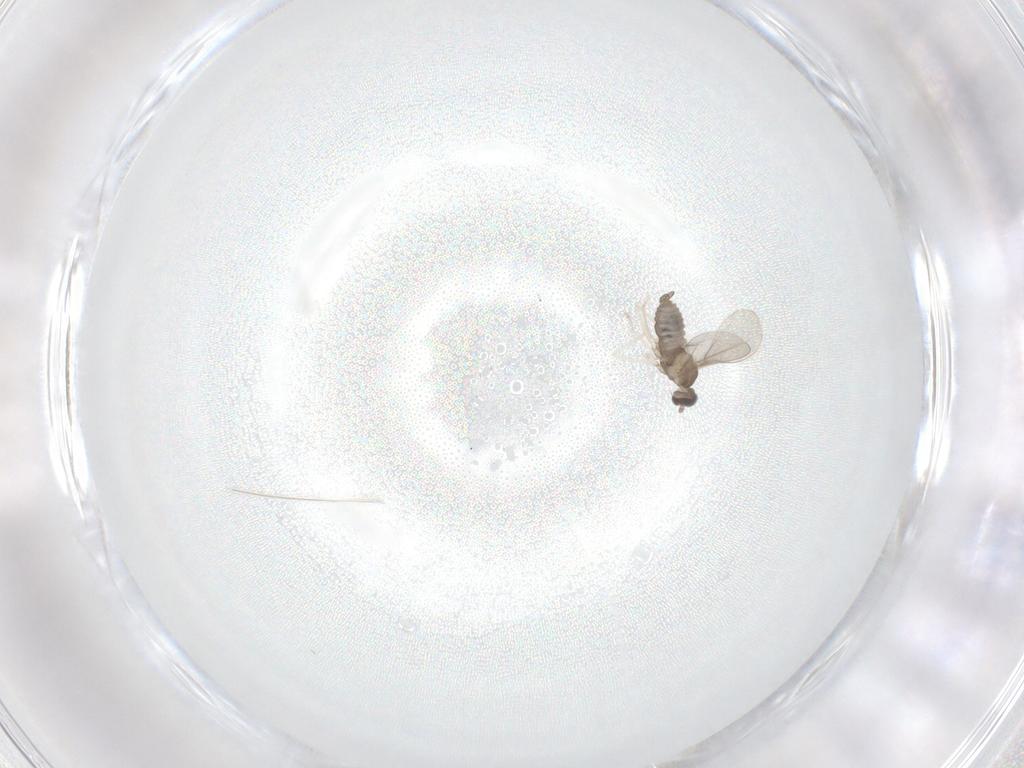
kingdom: Animalia
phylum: Arthropoda
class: Insecta
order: Diptera
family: Cecidomyiidae
